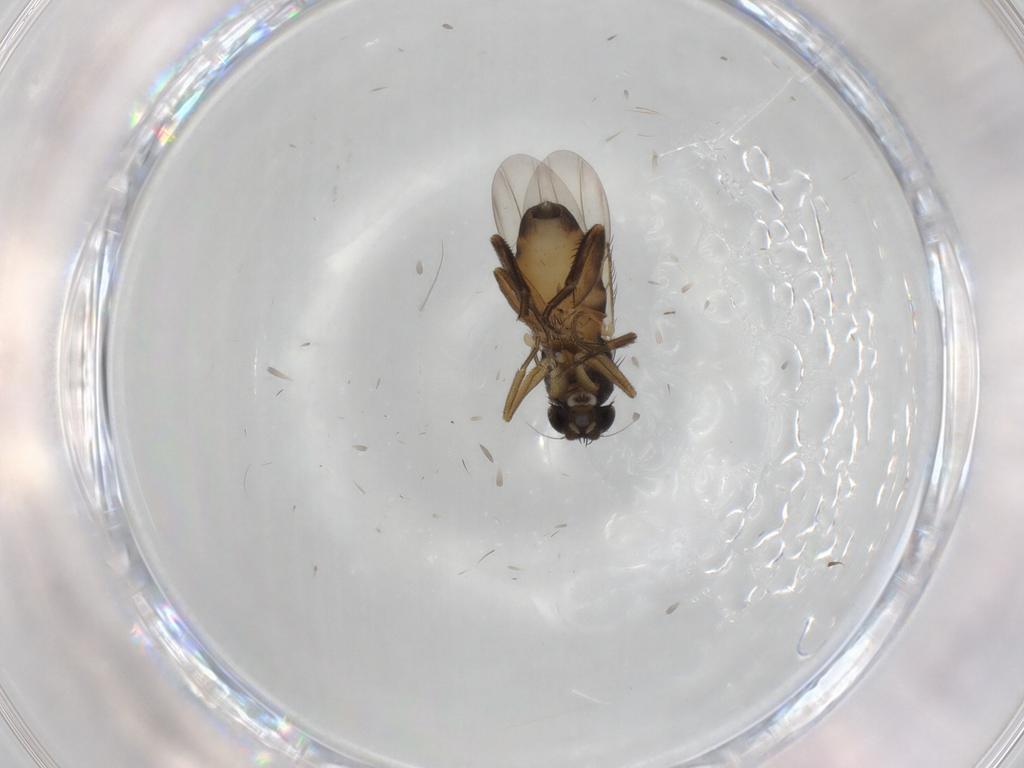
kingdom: Animalia
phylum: Arthropoda
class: Insecta
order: Diptera
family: Phoridae
